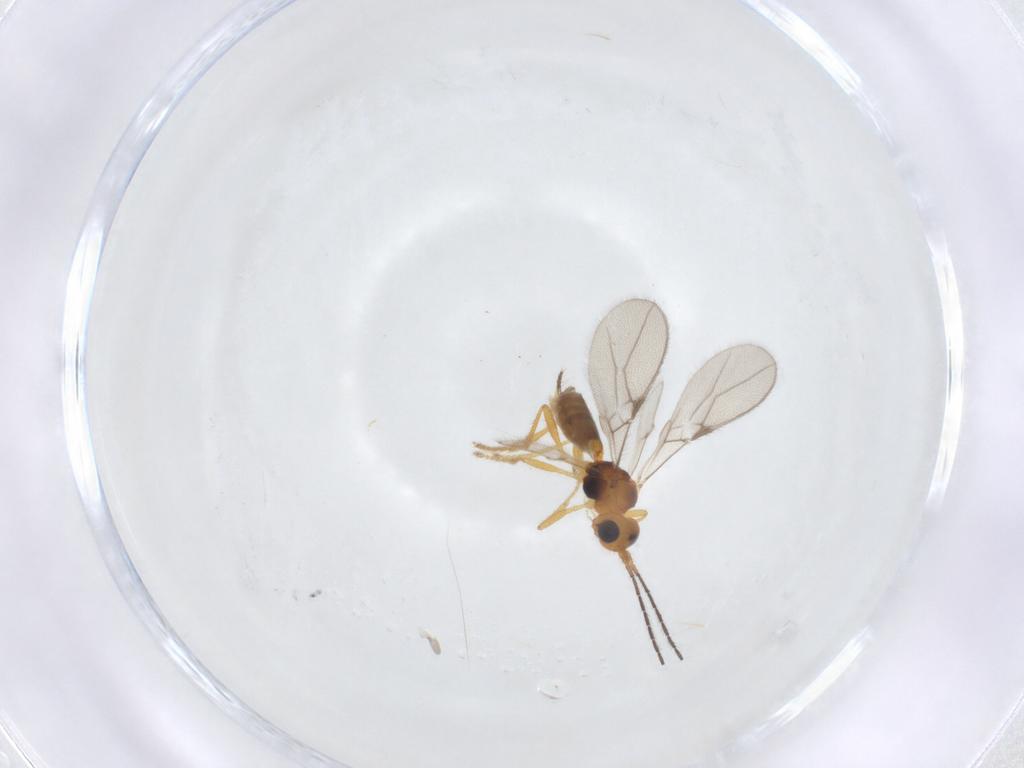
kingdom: Animalia
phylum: Arthropoda
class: Insecta
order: Hymenoptera
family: Braconidae
